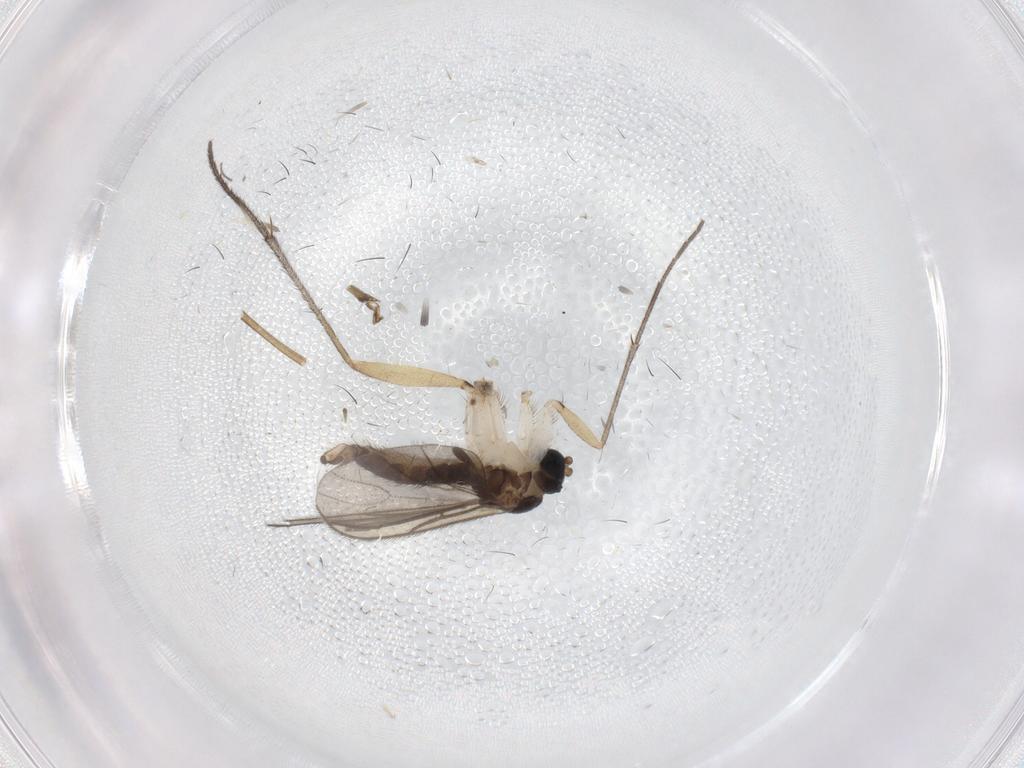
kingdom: Animalia
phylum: Arthropoda
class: Insecta
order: Diptera
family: Sciaridae
